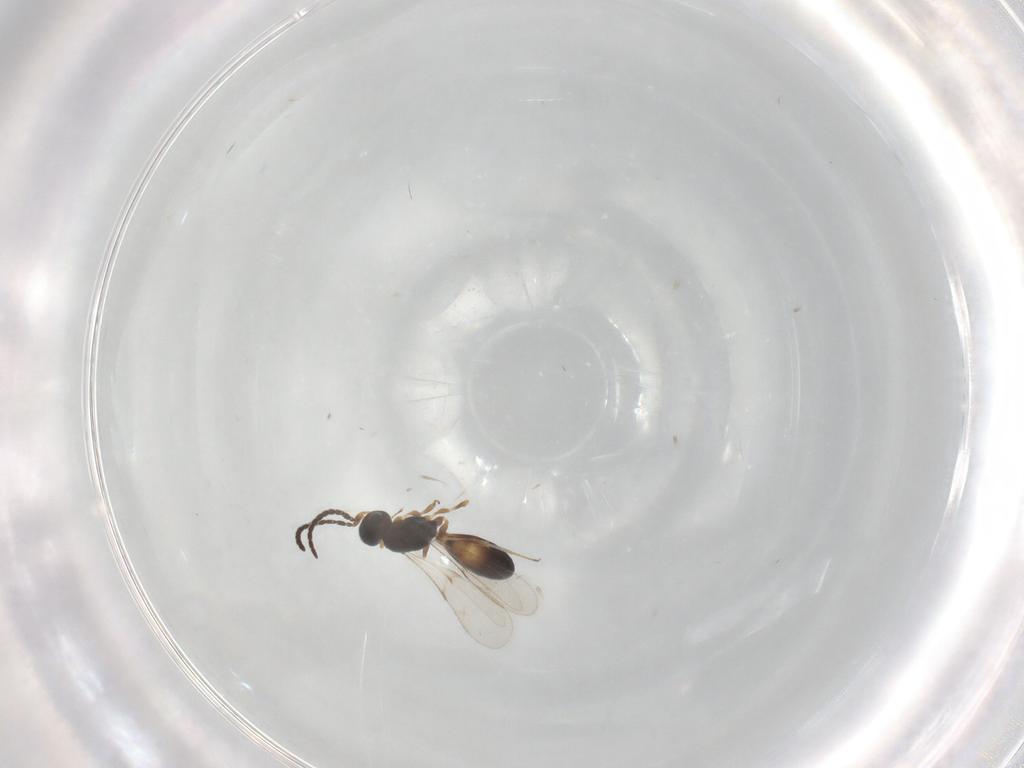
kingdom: Animalia
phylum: Arthropoda
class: Insecta
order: Hymenoptera
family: Scelionidae
